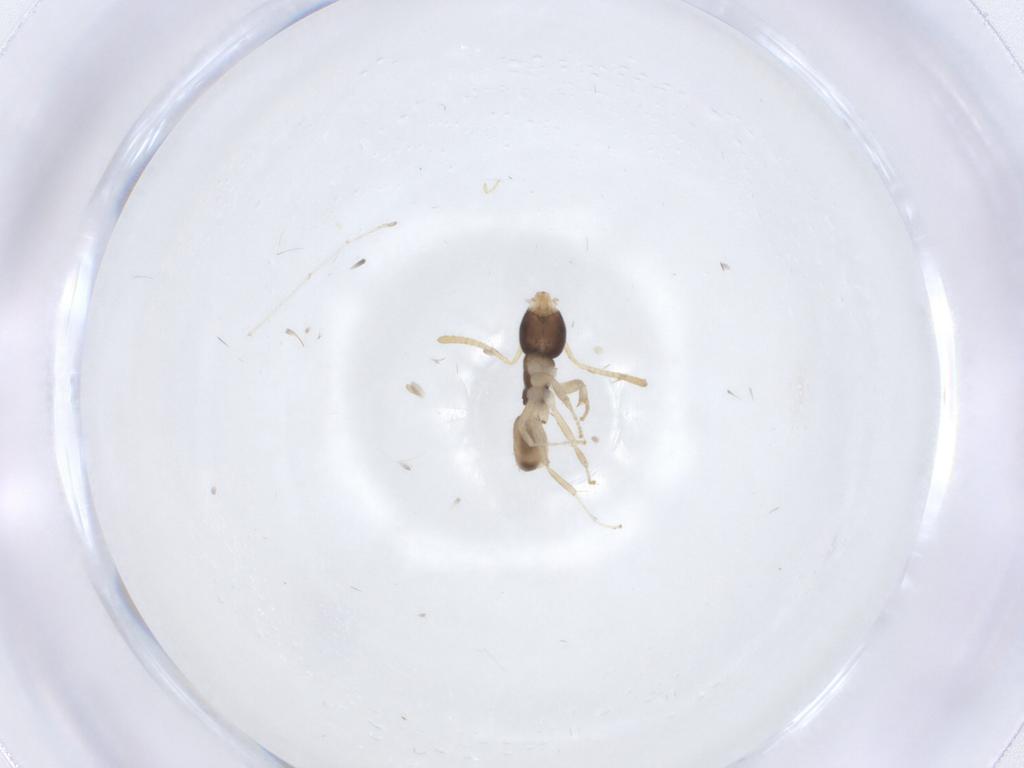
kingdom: Animalia
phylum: Arthropoda
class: Insecta
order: Hymenoptera
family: Formicidae
